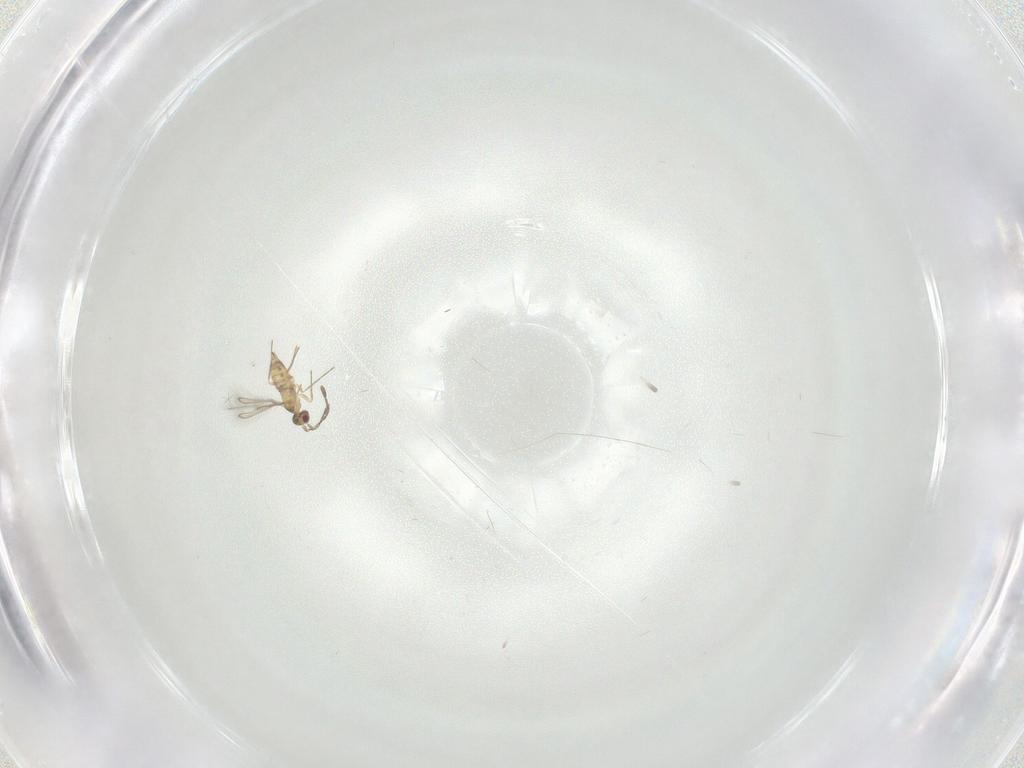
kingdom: Animalia
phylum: Arthropoda
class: Insecta
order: Hymenoptera
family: Mymaridae
